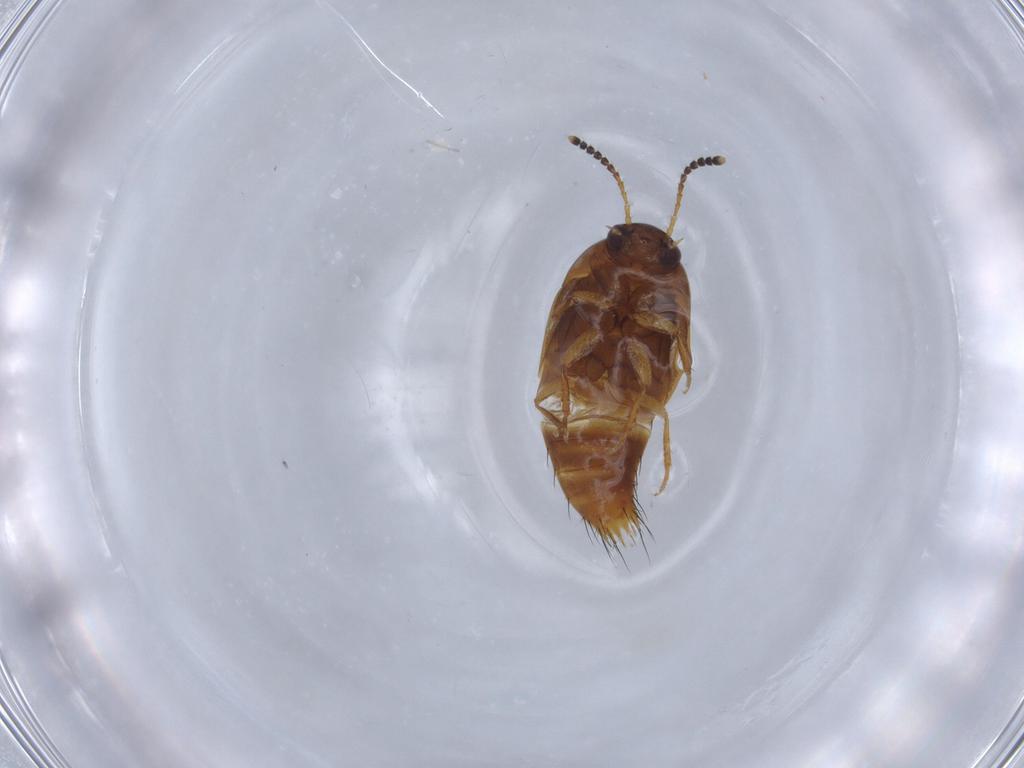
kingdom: Animalia
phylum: Arthropoda
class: Insecta
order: Coleoptera
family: Staphylinidae
